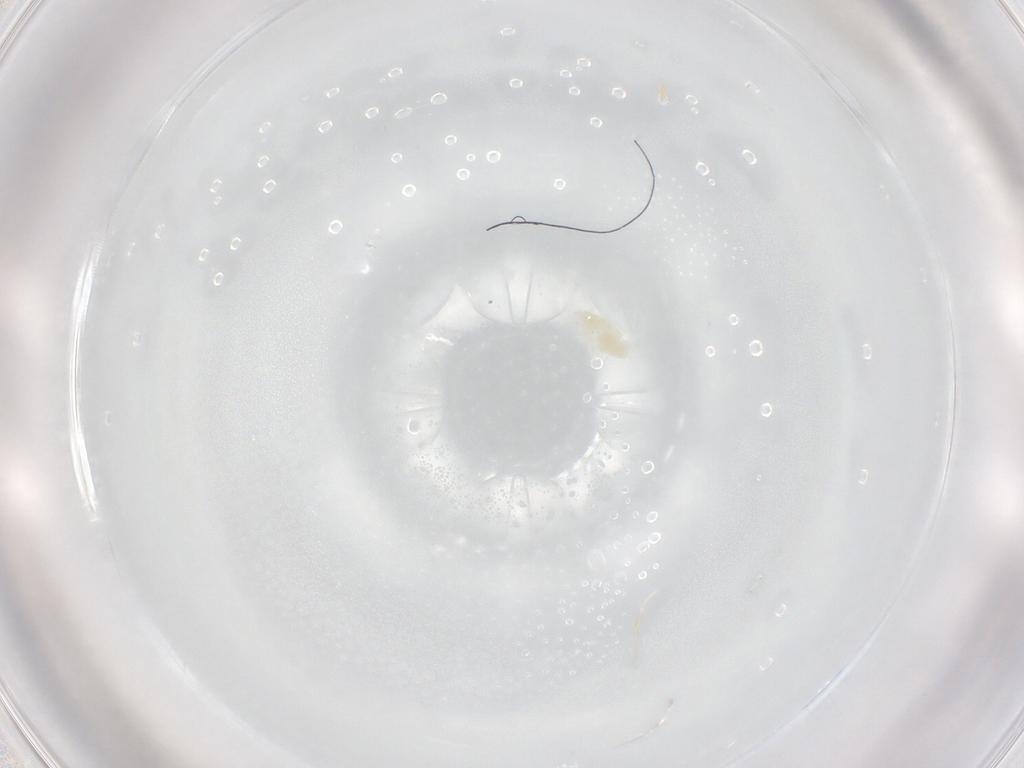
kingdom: Animalia
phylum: Arthropoda
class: Arachnida
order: Trombidiformes
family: Eupodidae
